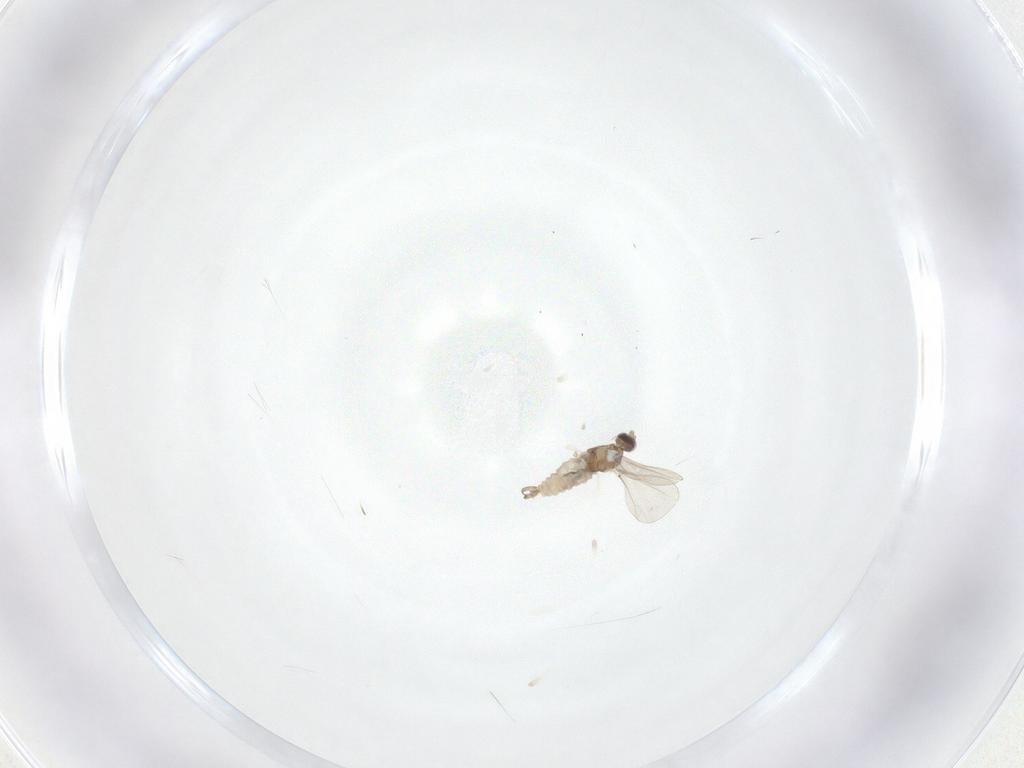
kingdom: Animalia
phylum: Arthropoda
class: Insecta
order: Diptera
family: Cecidomyiidae
